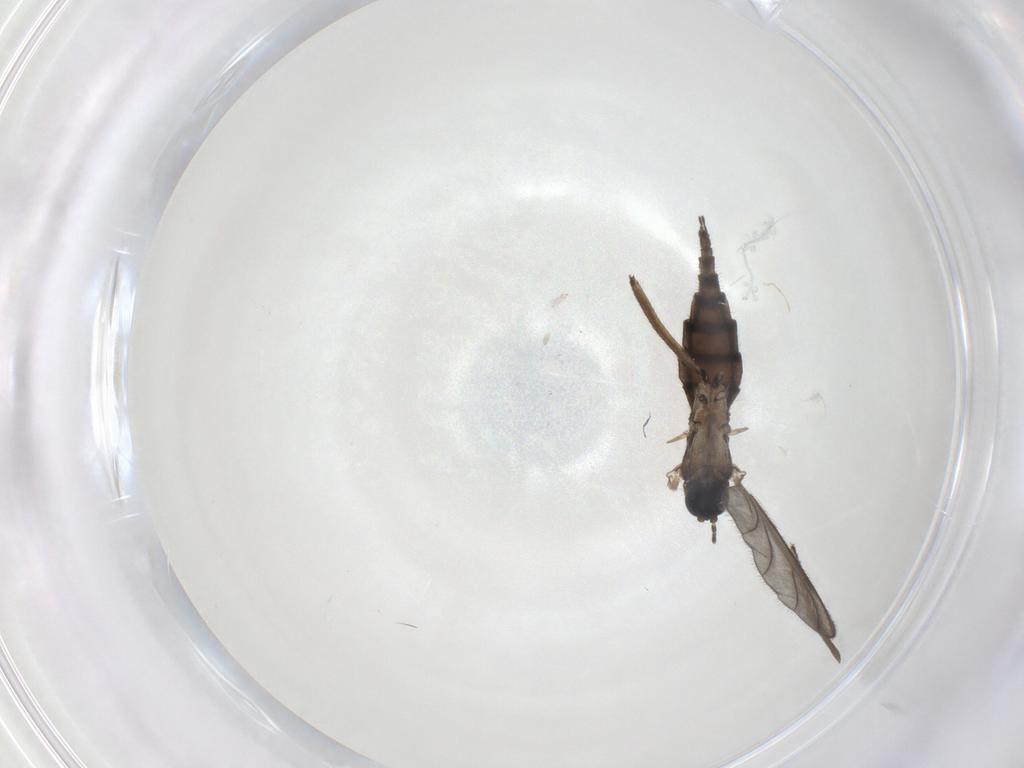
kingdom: Animalia
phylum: Arthropoda
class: Insecta
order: Diptera
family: Sciaridae
